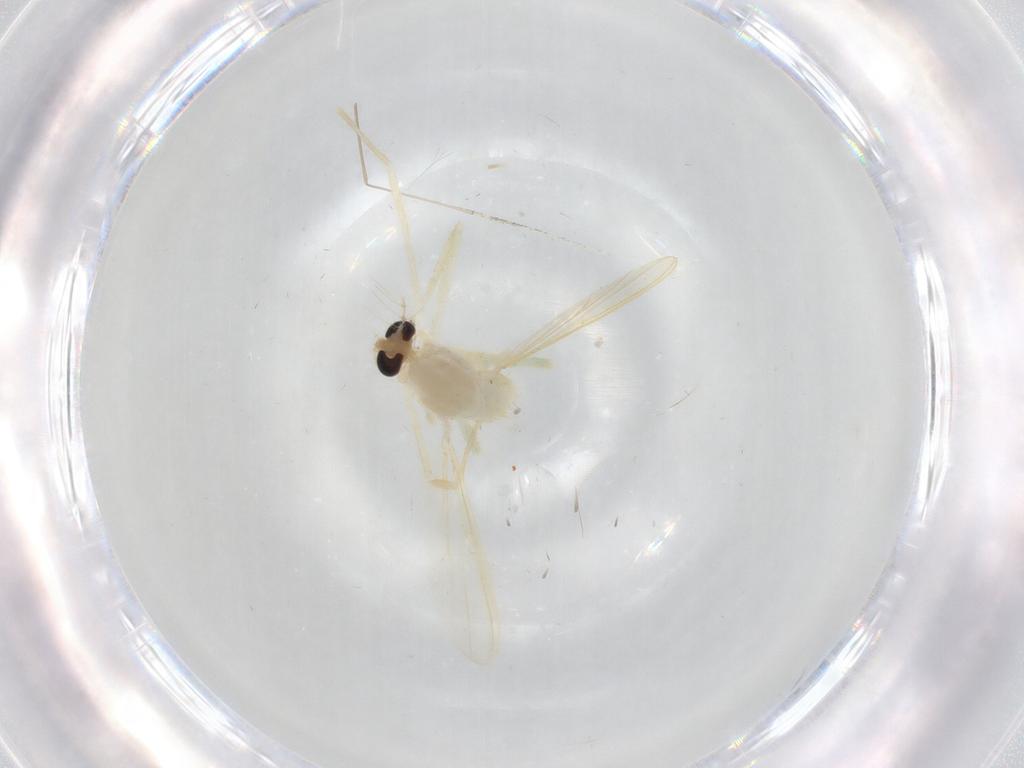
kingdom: Animalia
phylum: Arthropoda
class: Insecta
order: Diptera
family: Chironomidae
